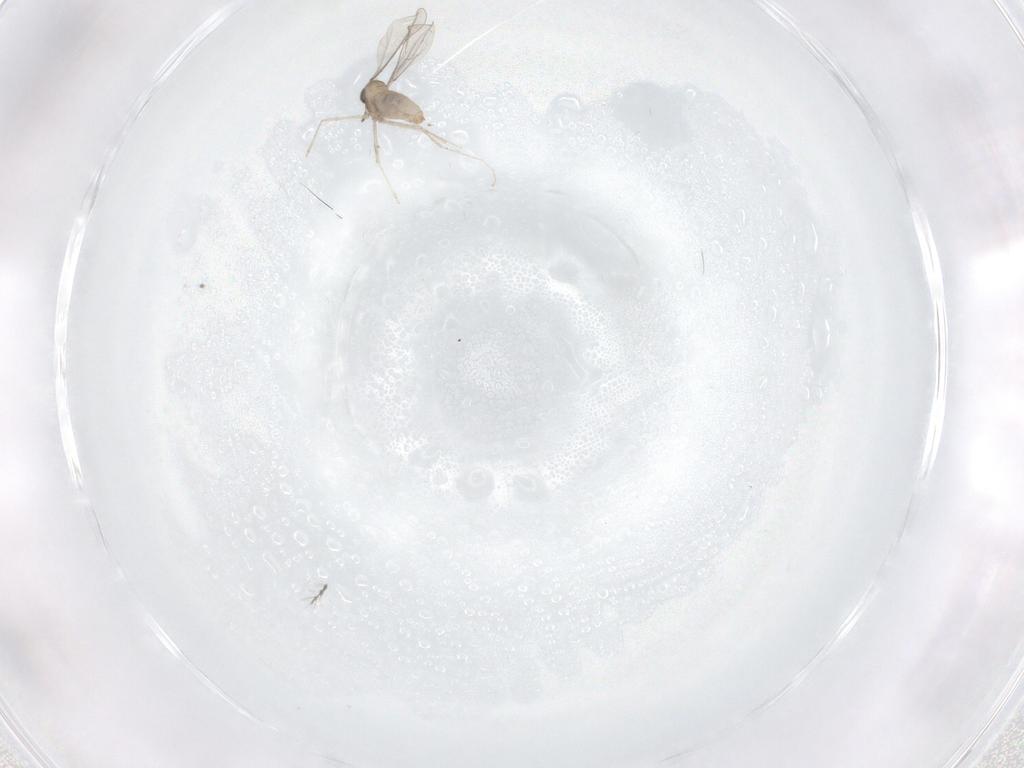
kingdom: Animalia
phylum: Arthropoda
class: Insecta
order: Diptera
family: Cecidomyiidae
